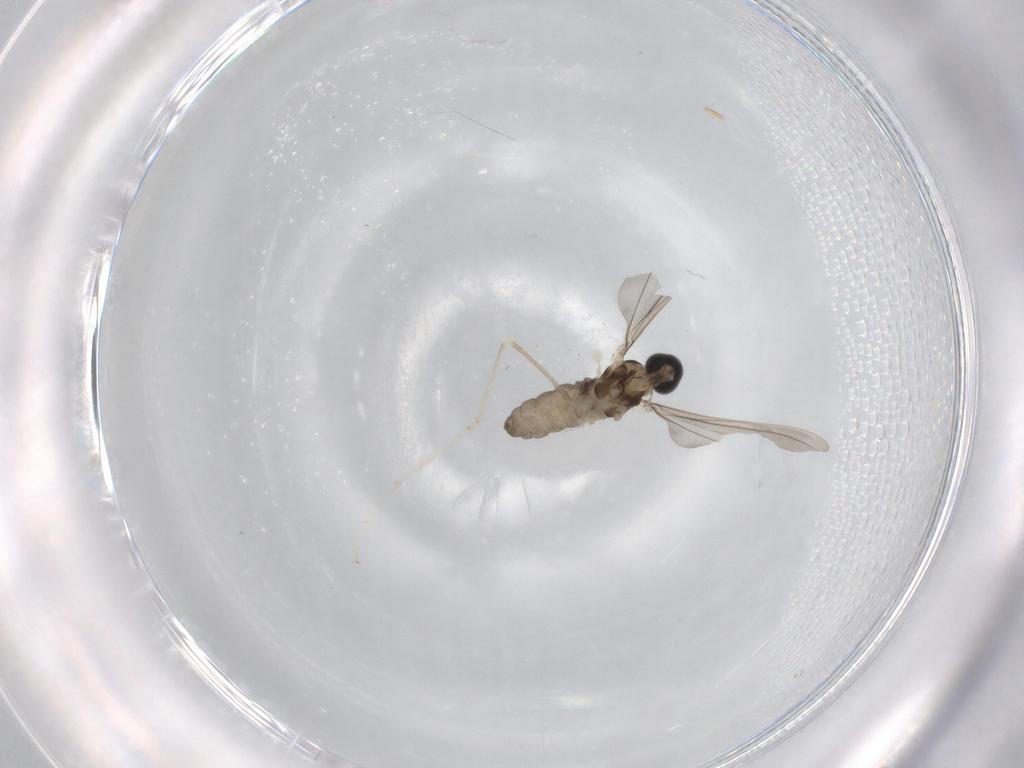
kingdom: Animalia
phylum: Arthropoda
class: Insecta
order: Diptera
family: Cecidomyiidae
